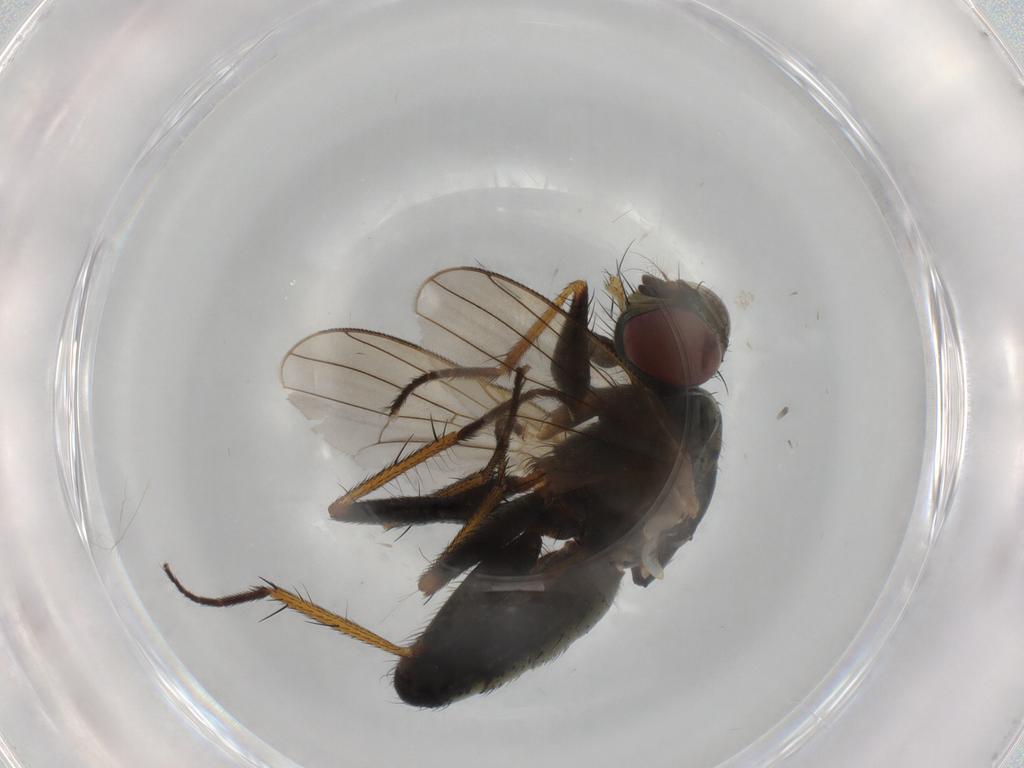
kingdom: Animalia
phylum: Arthropoda
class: Insecta
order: Diptera
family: Muscidae
